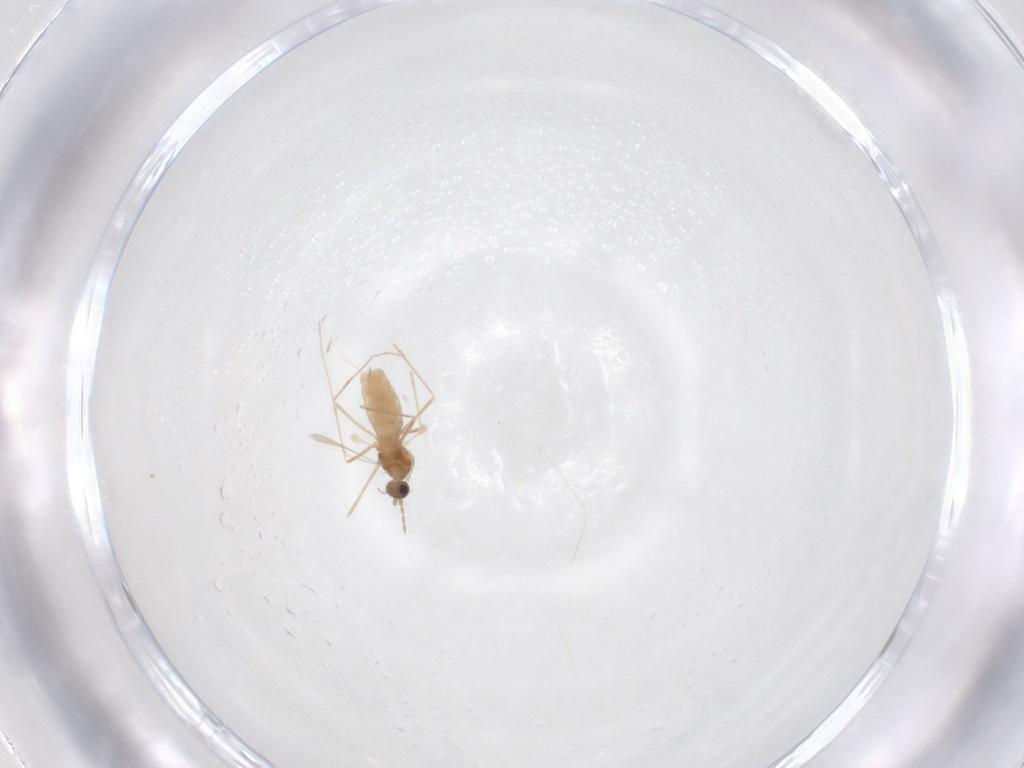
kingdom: Animalia
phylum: Arthropoda
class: Insecta
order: Diptera
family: Cecidomyiidae
